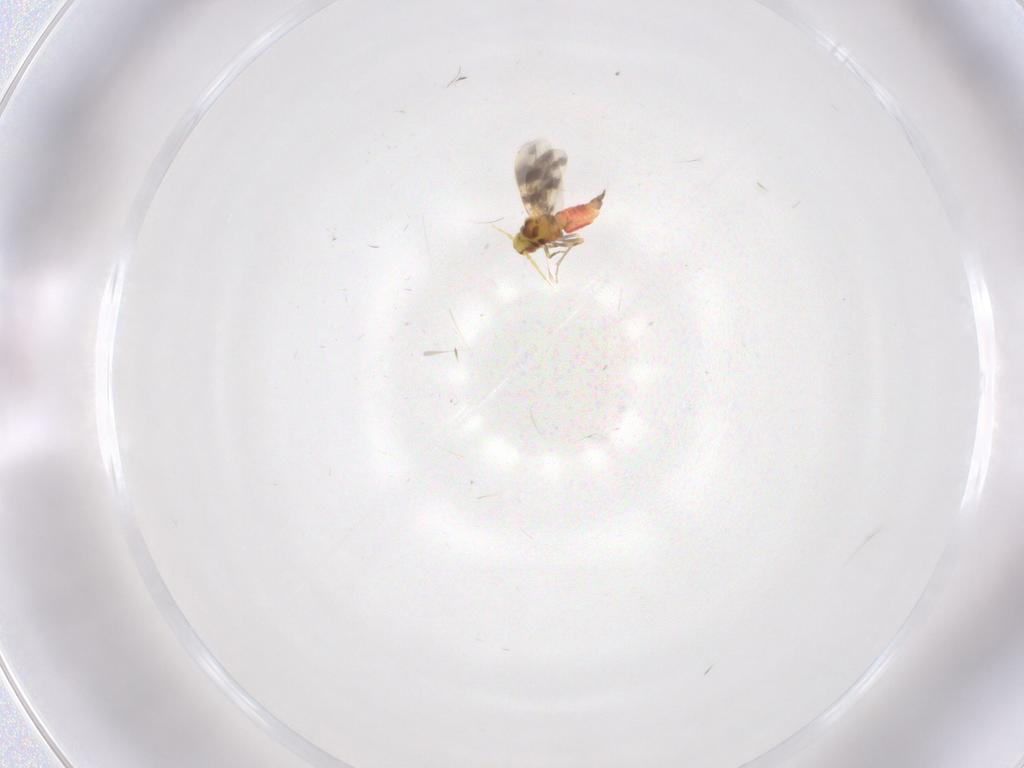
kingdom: Animalia
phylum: Arthropoda
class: Insecta
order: Hemiptera
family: Aleyrodidae
